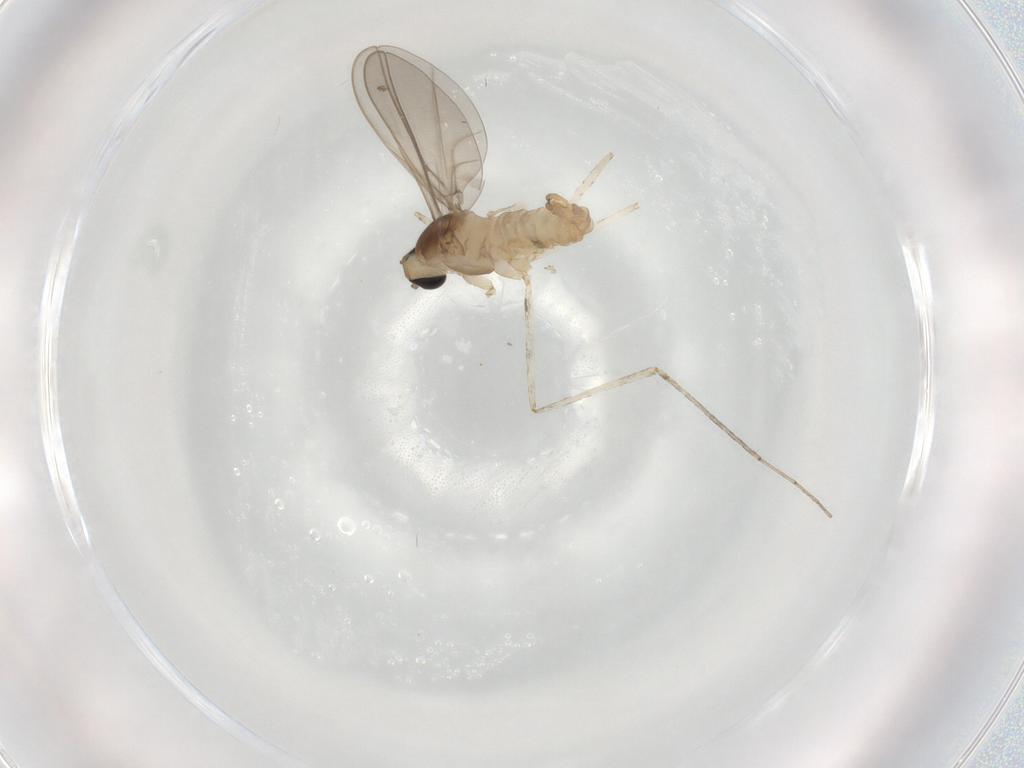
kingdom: Animalia
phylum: Arthropoda
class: Insecta
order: Diptera
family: Cecidomyiidae
